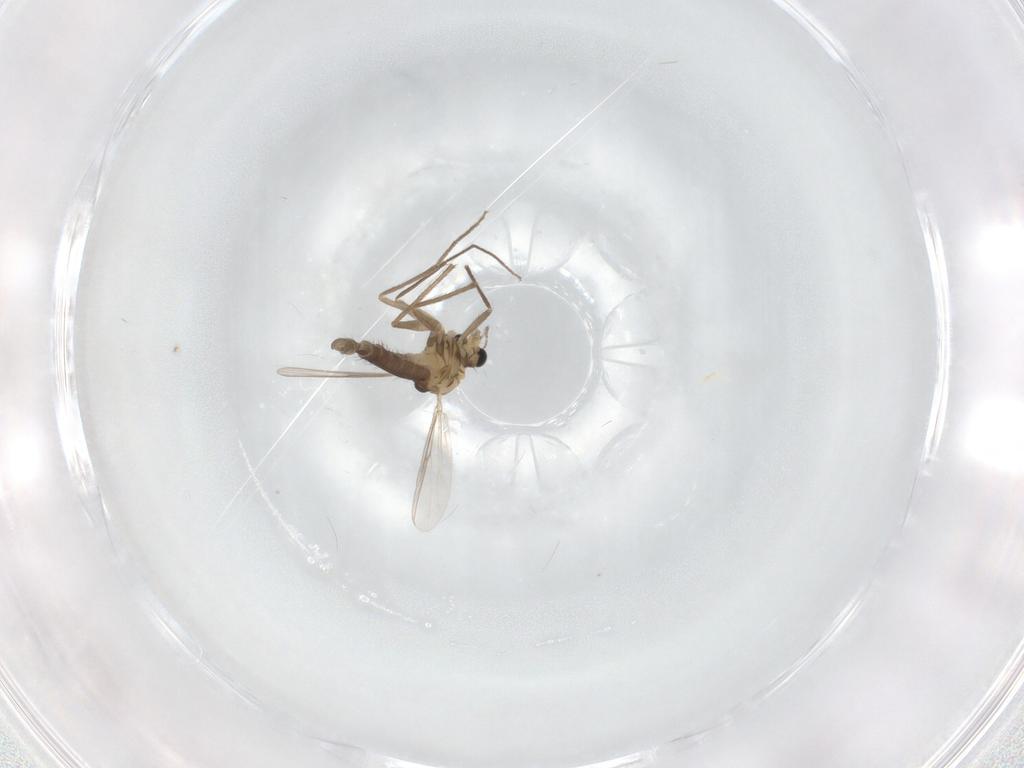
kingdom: Animalia
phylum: Arthropoda
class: Insecta
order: Diptera
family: Chironomidae
